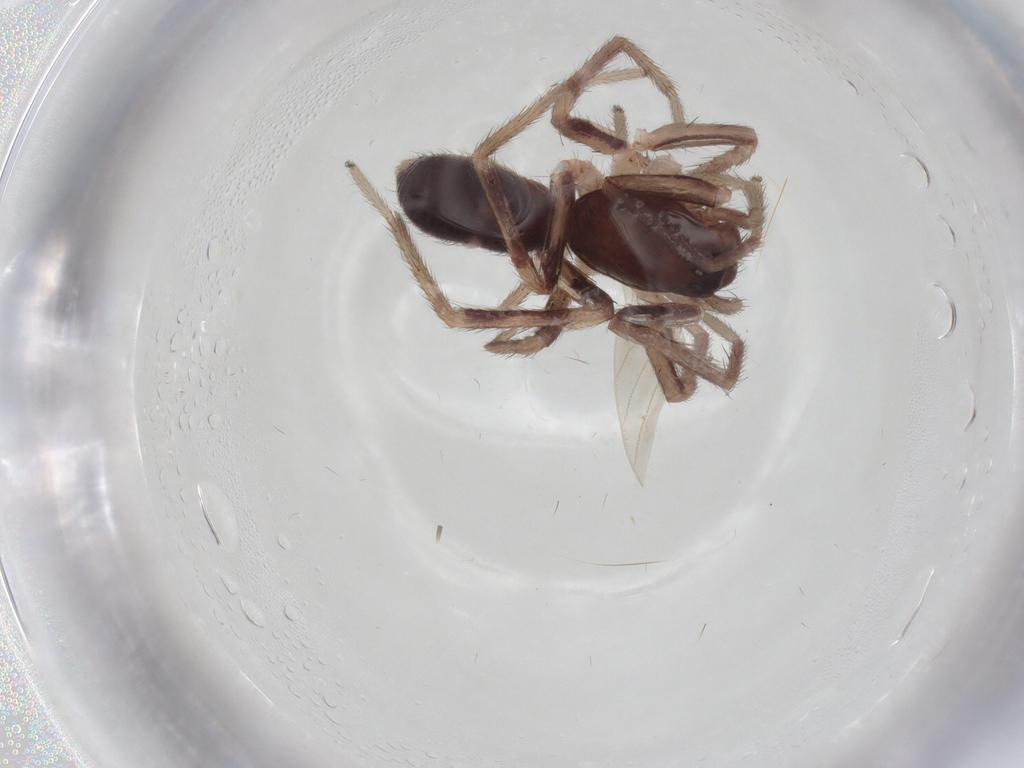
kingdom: Animalia
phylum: Arthropoda
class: Arachnida
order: Araneae
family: Corinnidae
